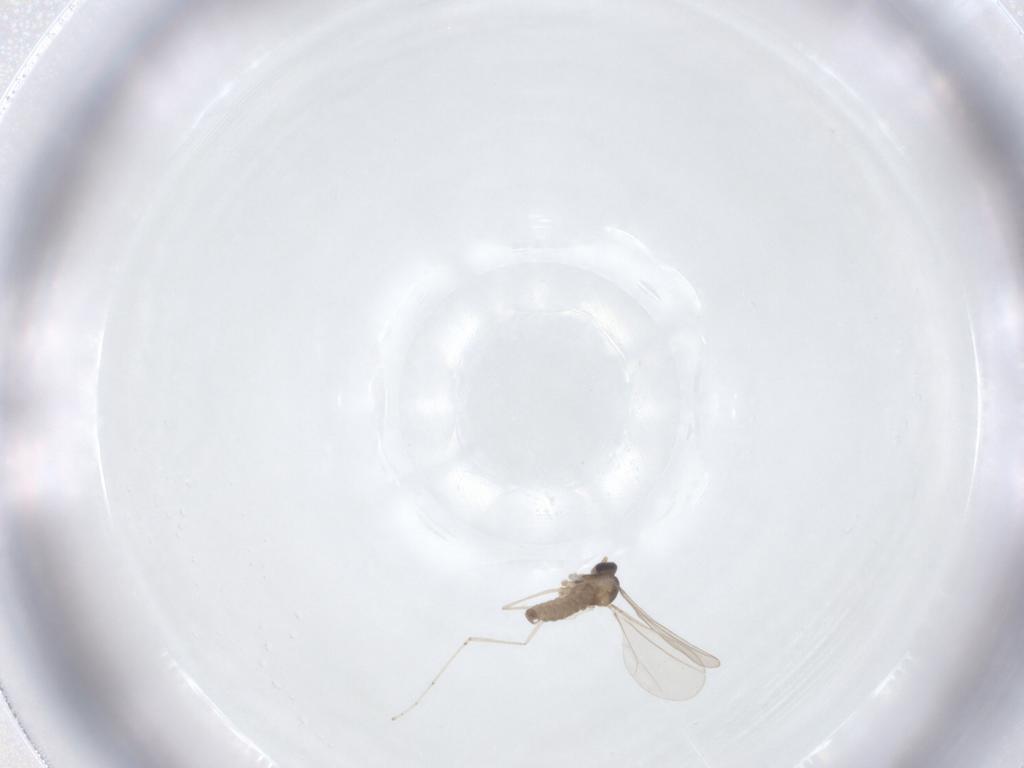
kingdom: Animalia
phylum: Arthropoda
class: Insecta
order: Diptera
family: Cecidomyiidae
